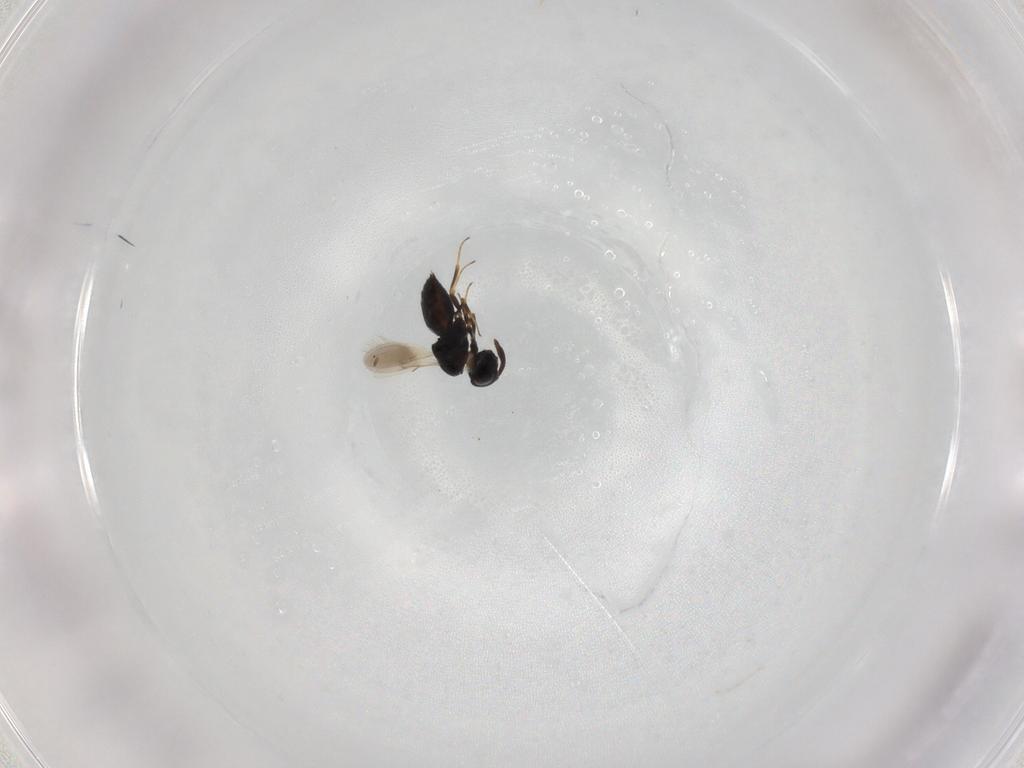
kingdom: Animalia
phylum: Arthropoda
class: Insecta
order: Hymenoptera
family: Scelionidae
